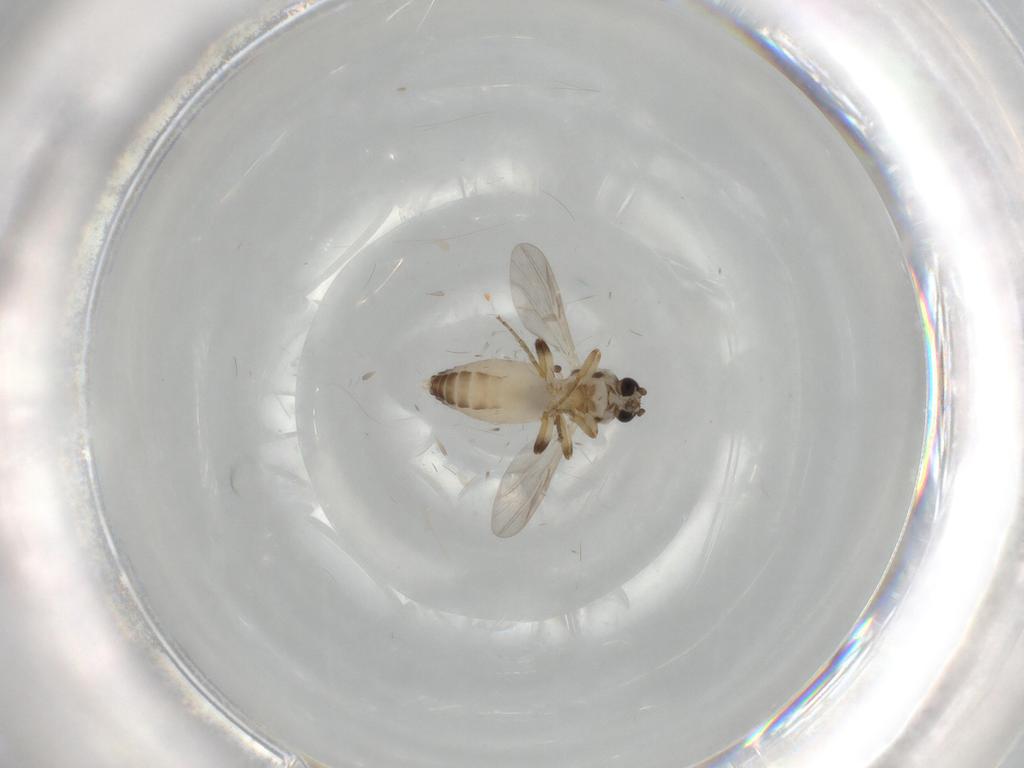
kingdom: Animalia
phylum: Arthropoda
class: Insecta
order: Diptera
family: Ceratopogonidae
